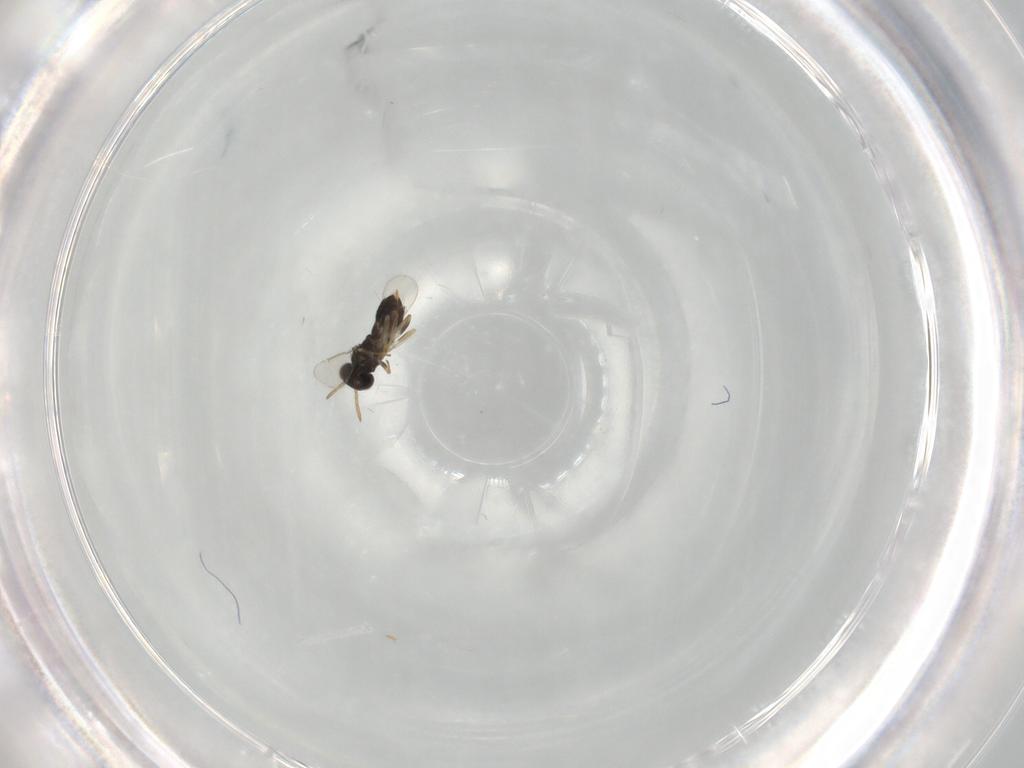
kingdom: Animalia
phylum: Arthropoda
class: Insecta
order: Hymenoptera
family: Aphelinidae
